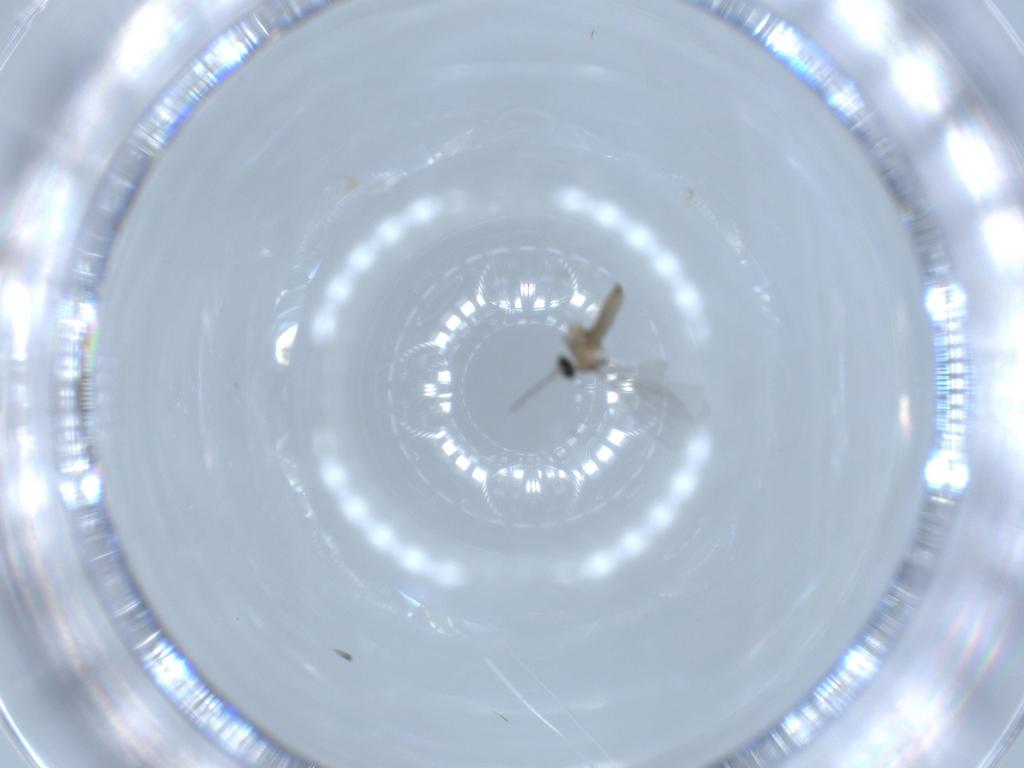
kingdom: Animalia
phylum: Arthropoda
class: Insecta
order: Diptera
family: Cecidomyiidae
